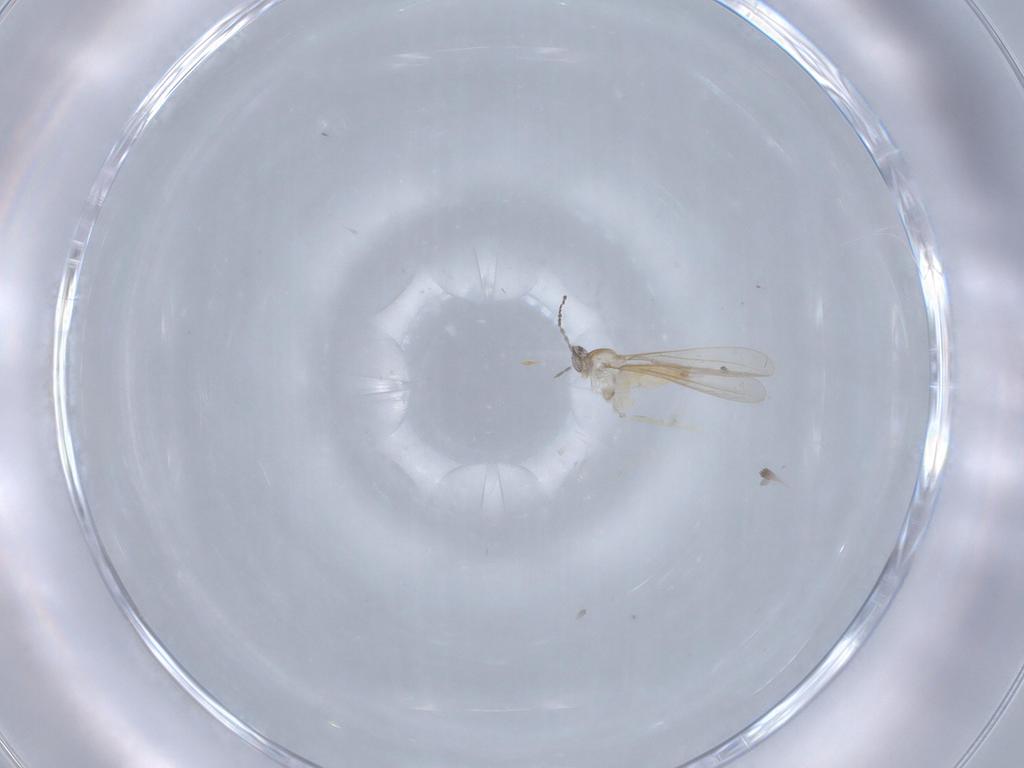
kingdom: Animalia
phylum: Arthropoda
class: Insecta
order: Diptera
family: Cecidomyiidae
